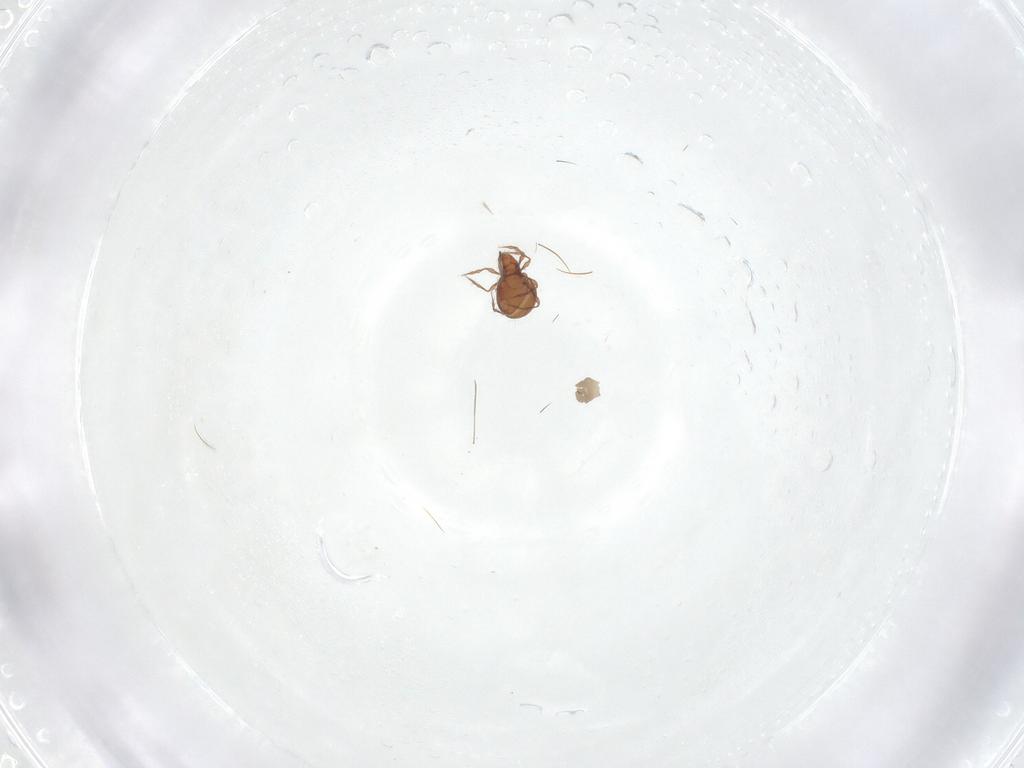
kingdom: Animalia
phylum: Arthropoda
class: Arachnida
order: Sarcoptiformes
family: Oppiidae
